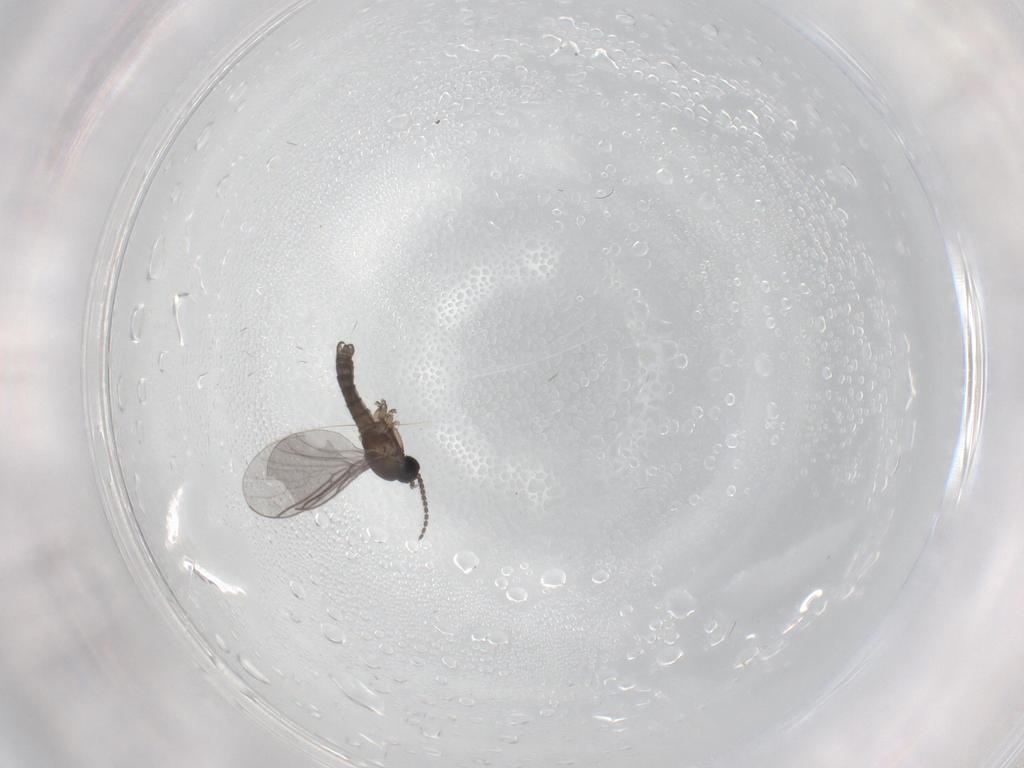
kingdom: Animalia
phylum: Arthropoda
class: Insecta
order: Diptera
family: Sciaridae
